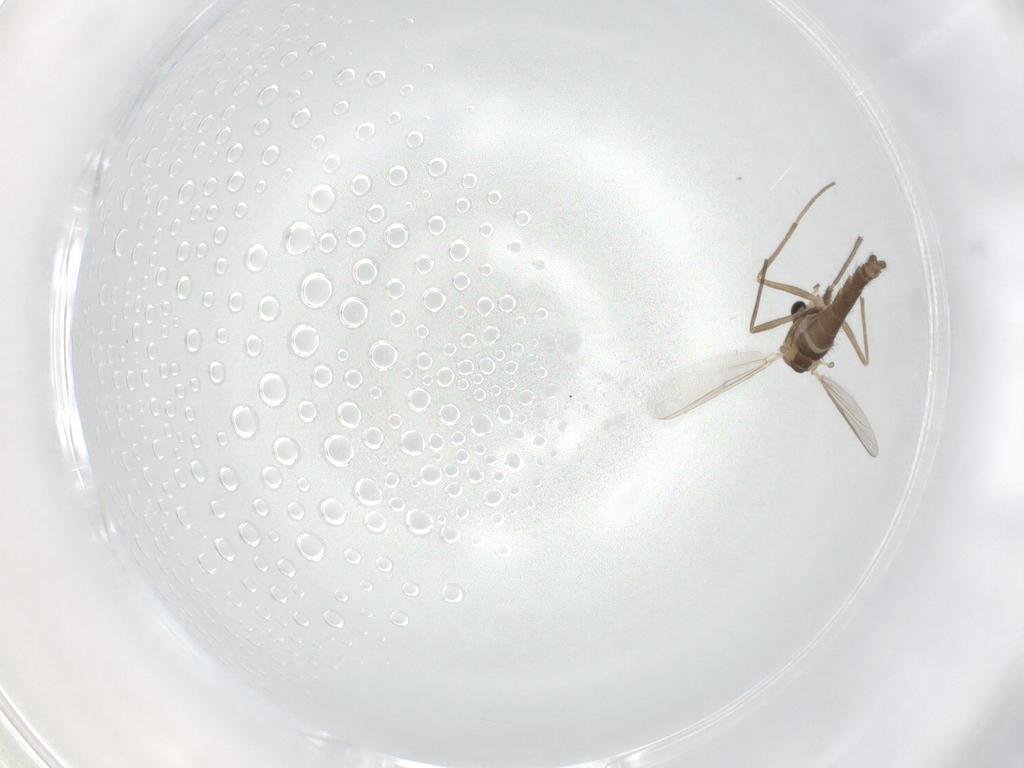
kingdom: Animalia
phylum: Arthropoda
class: Insecta
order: Diptera
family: Chironomidae
